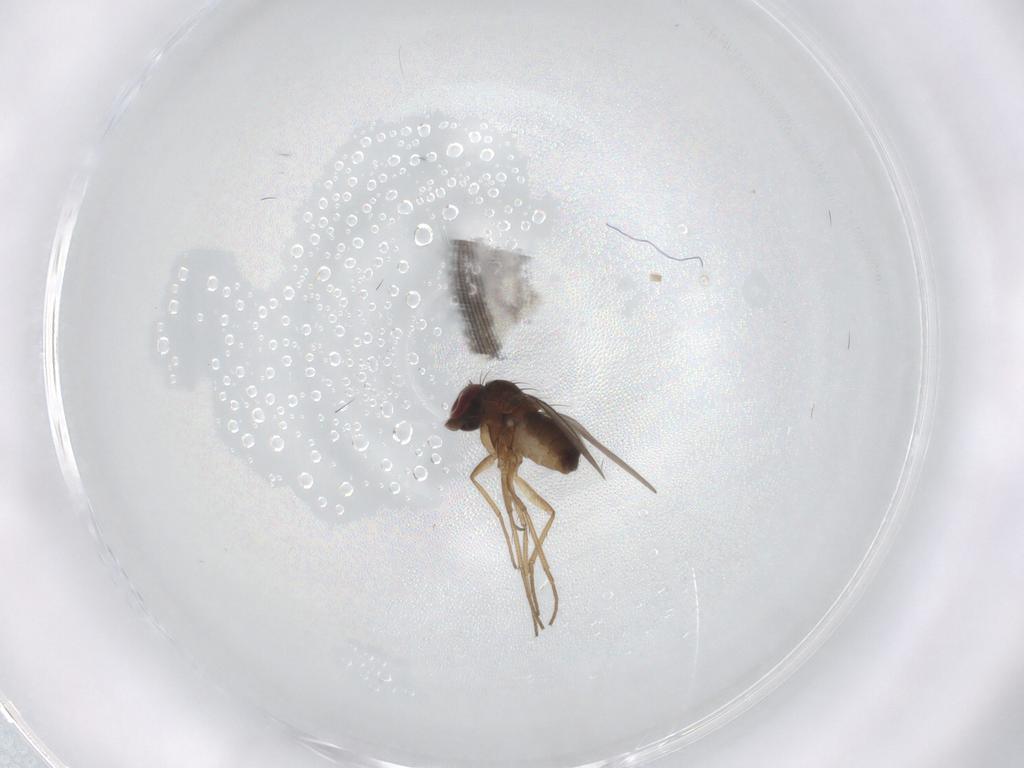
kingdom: Animalia
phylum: Arthropoda
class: Insecta
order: Diptera
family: Dolichopodidae
